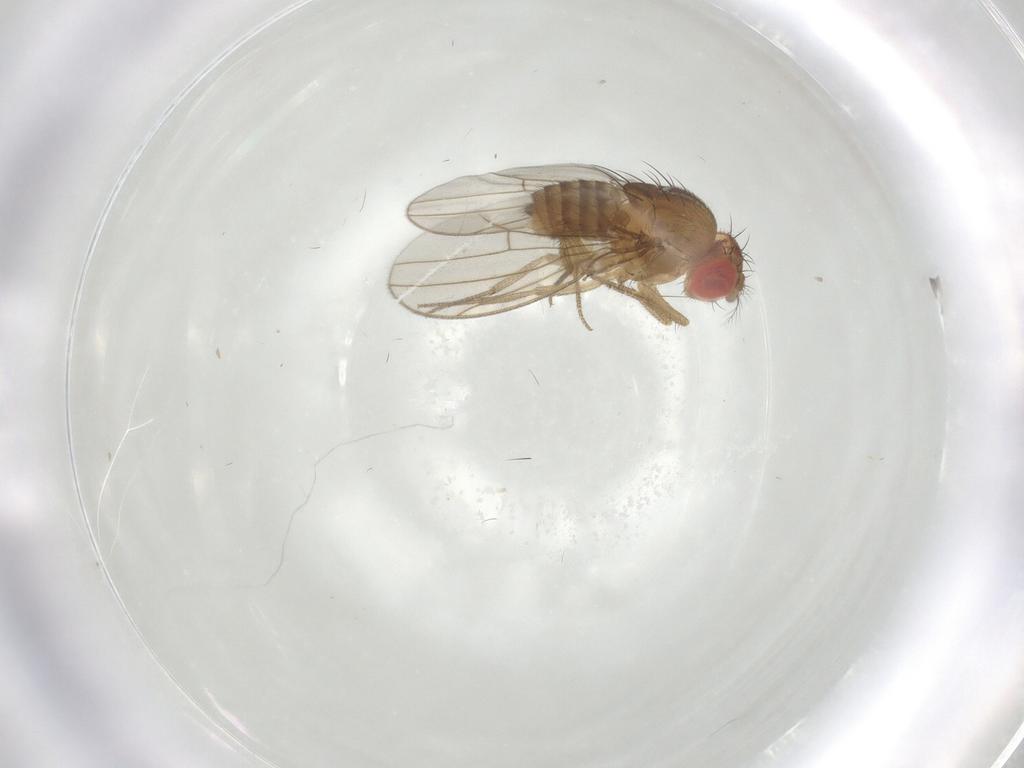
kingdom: Animalia
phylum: Arthropoda
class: Insecta
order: Diptera
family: Drosophilidae
